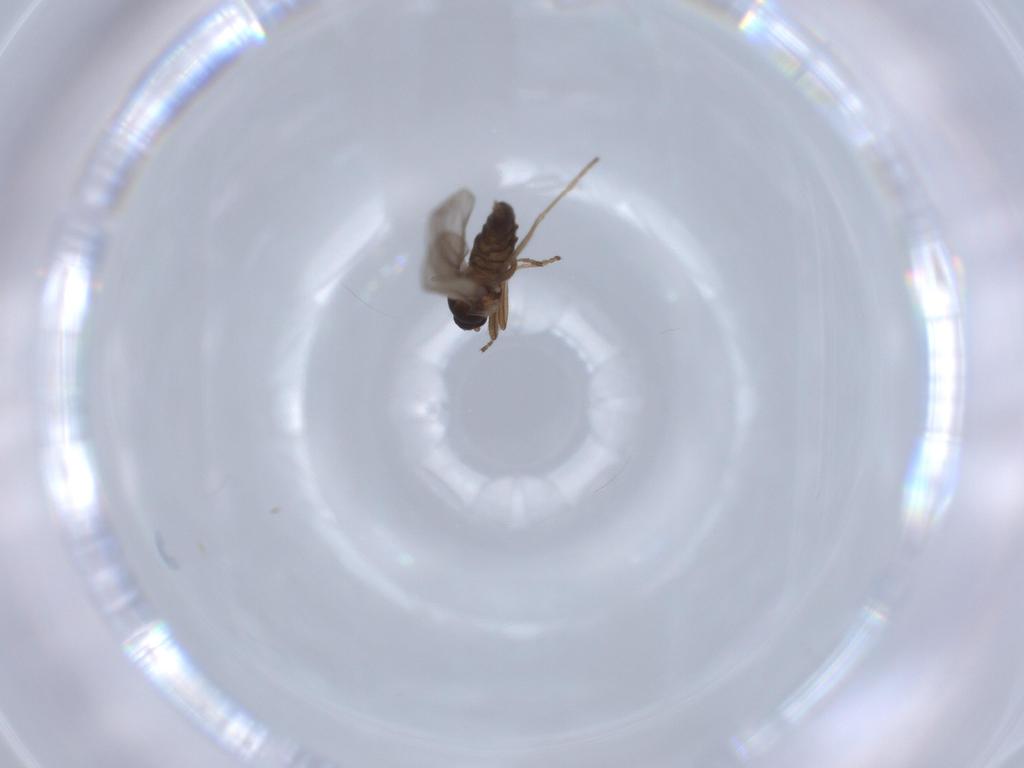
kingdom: Animalia
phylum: Arthropoda
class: Insecta
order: Diptera
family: Sphaeroceridae
